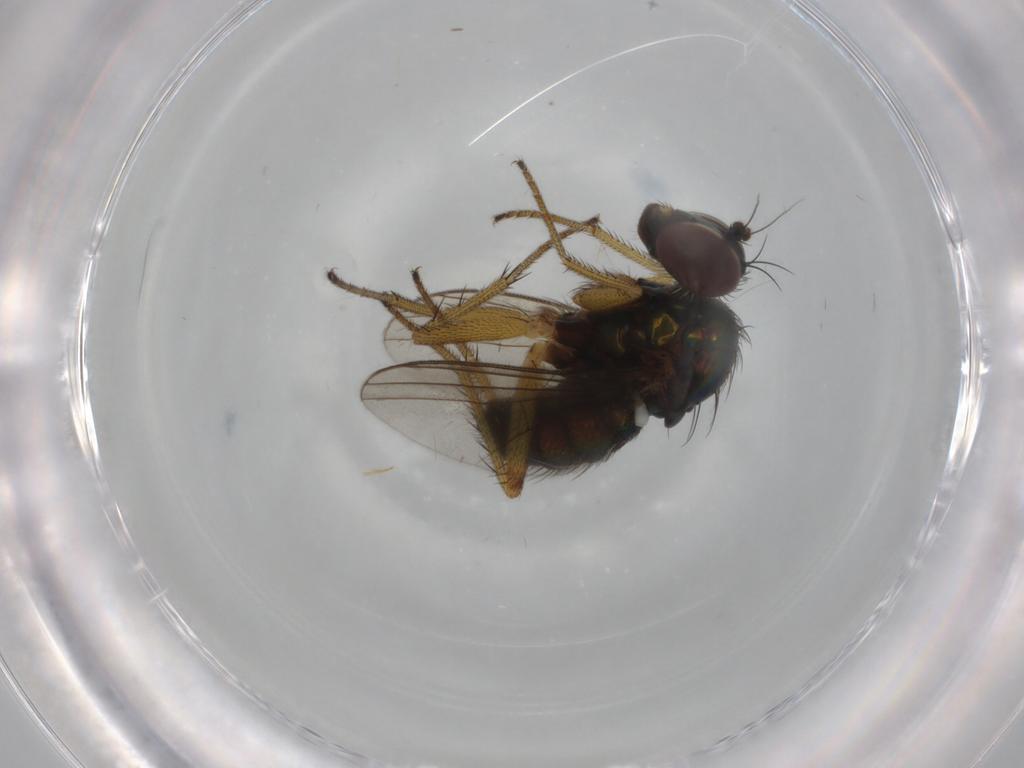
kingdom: Animalia
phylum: Arthropoda
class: Insecta
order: Diptera
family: Dolichopodidae
